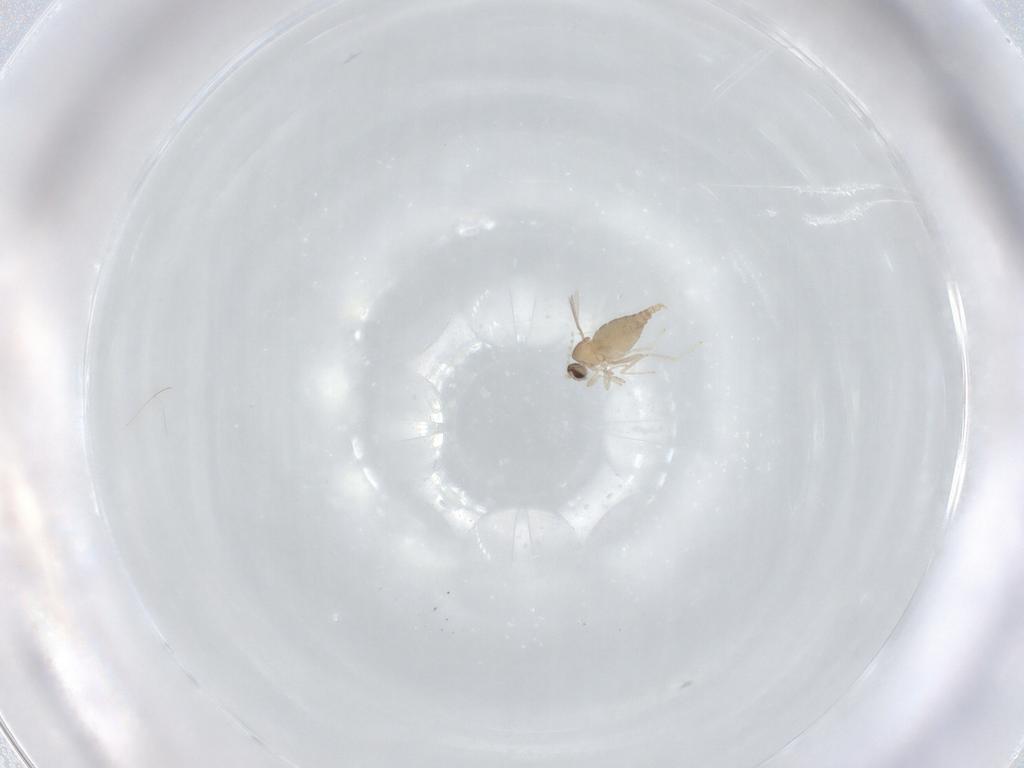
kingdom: Animalia
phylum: Arthropoda
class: Insecta
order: Diptera
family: Cecidomyiidae
